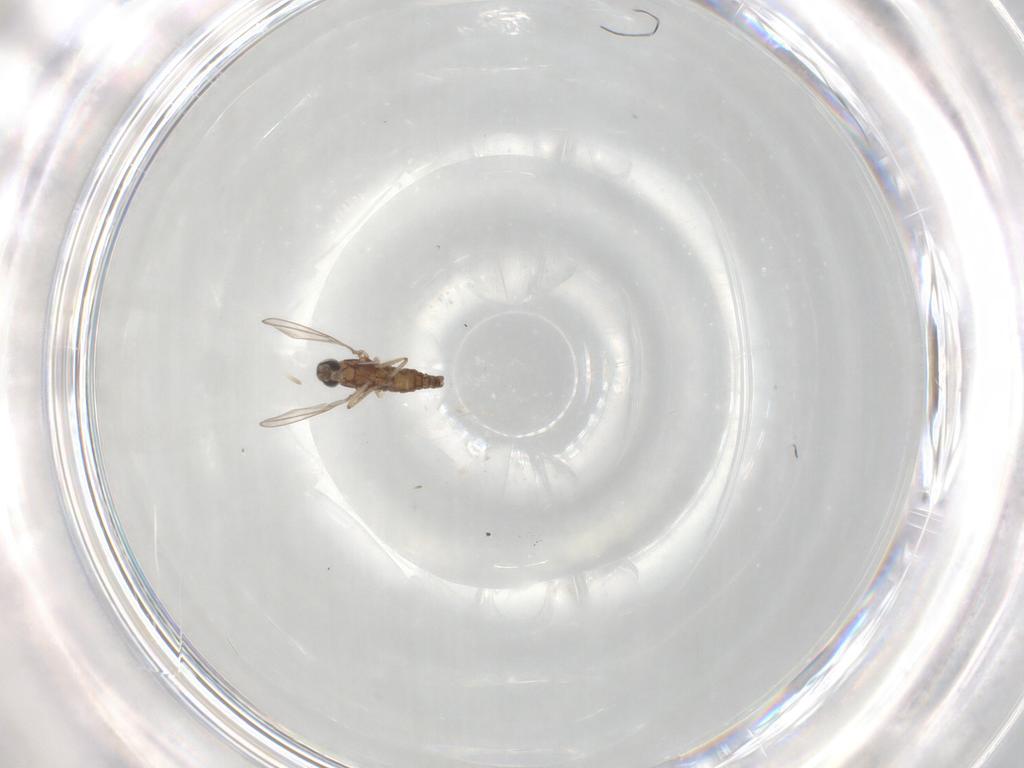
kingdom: Animalia
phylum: Arthropoda
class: Insecta
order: Diptera
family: Cecidomyiidae
